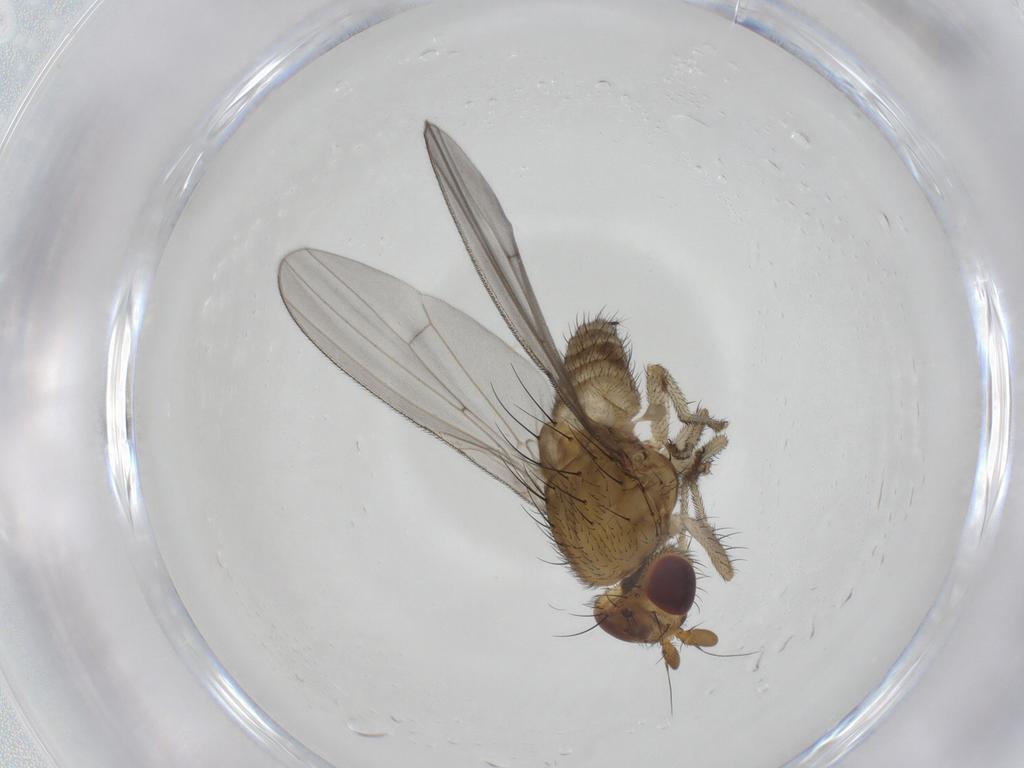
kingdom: Animalia
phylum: Arthropoda
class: Insecta
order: Diptera
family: Lauxaniidae
